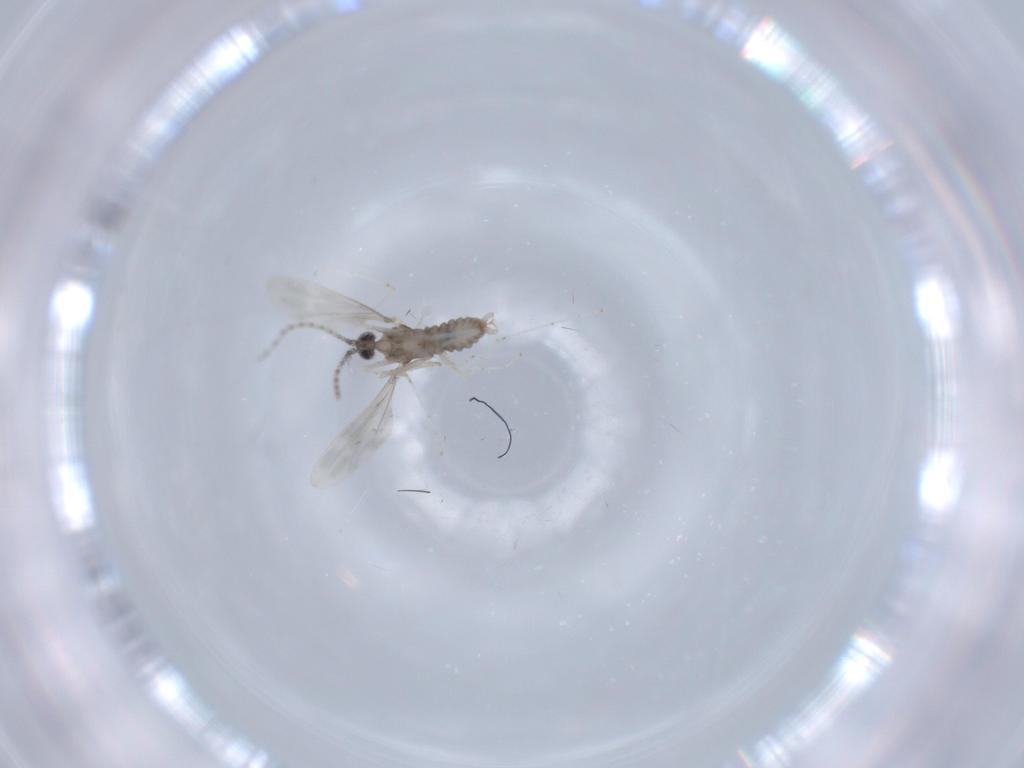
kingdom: Animalia
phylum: Arthropoda
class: Insecta
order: Diptera
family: Cecidomyiidae
